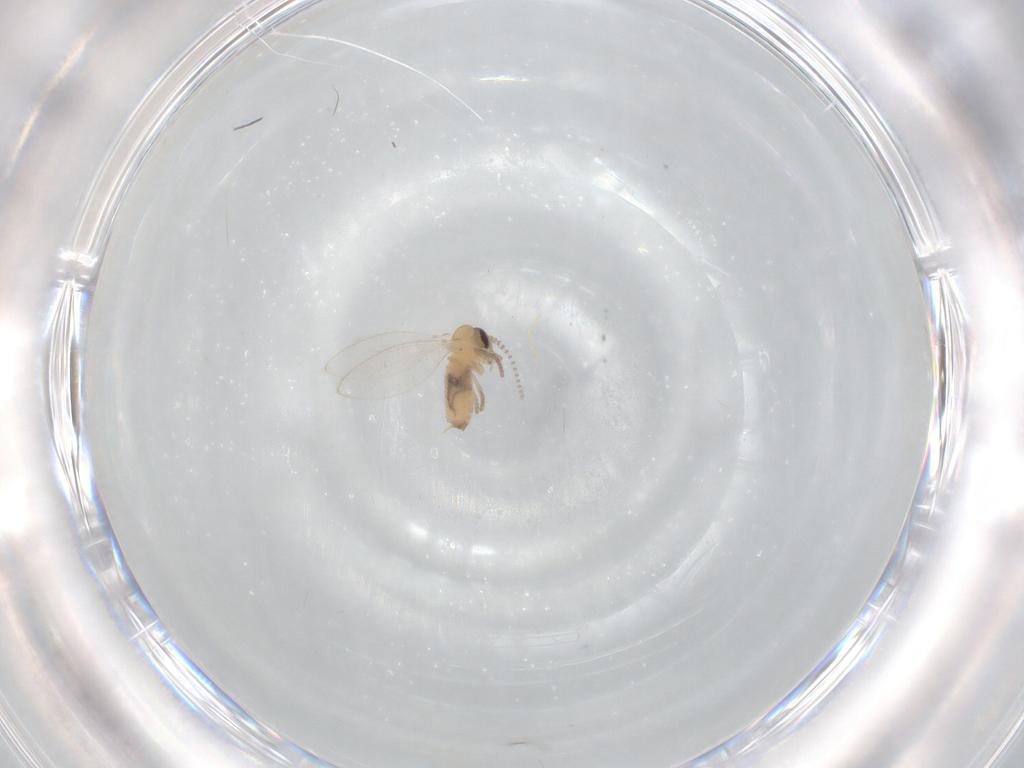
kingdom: Animalia
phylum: Arthropoda
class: Insecta
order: Diptera
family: Psychodidae
